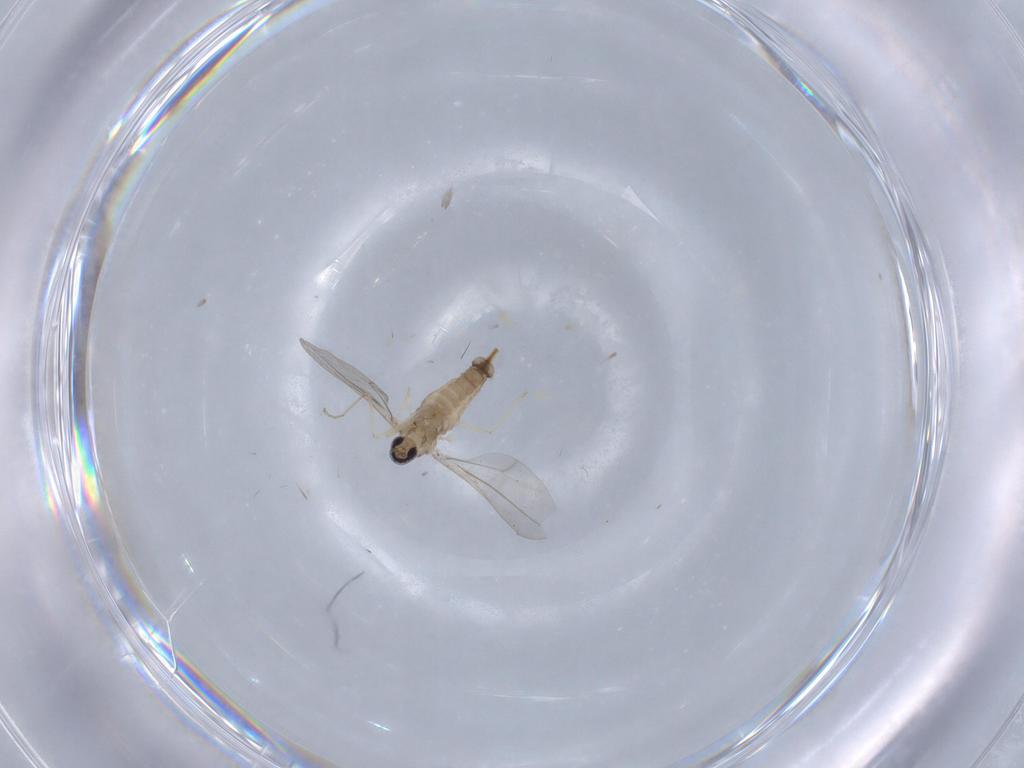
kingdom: Animalia
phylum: Arthropoda
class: Insecta
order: Diptera
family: Cecidomyiidae
